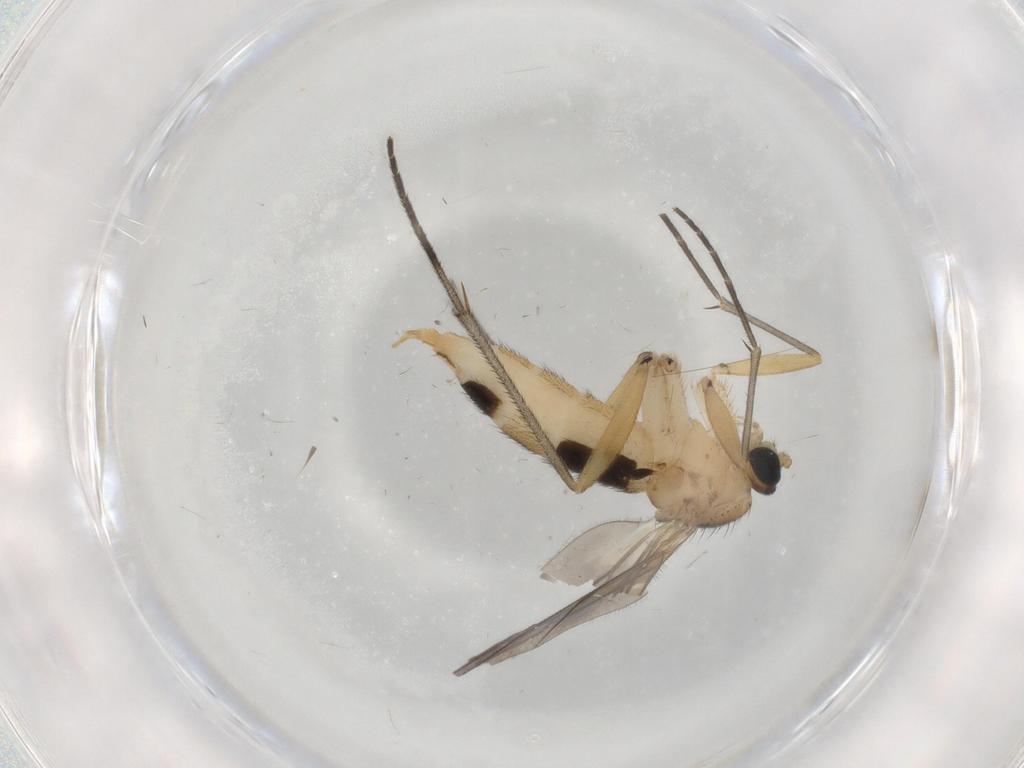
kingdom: Animalia
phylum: Arthropoda
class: Insecta
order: Diptera
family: Sciaridae
